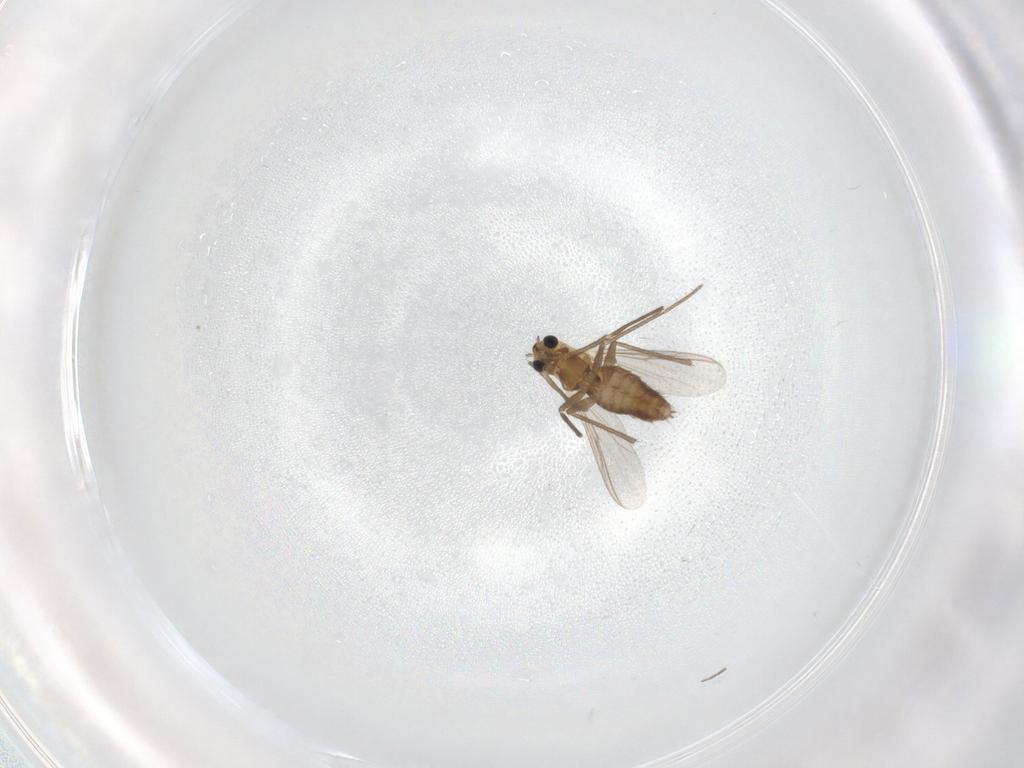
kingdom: Animalia
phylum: Arthropoda
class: Insecta
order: Diptera
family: Chironomidae
